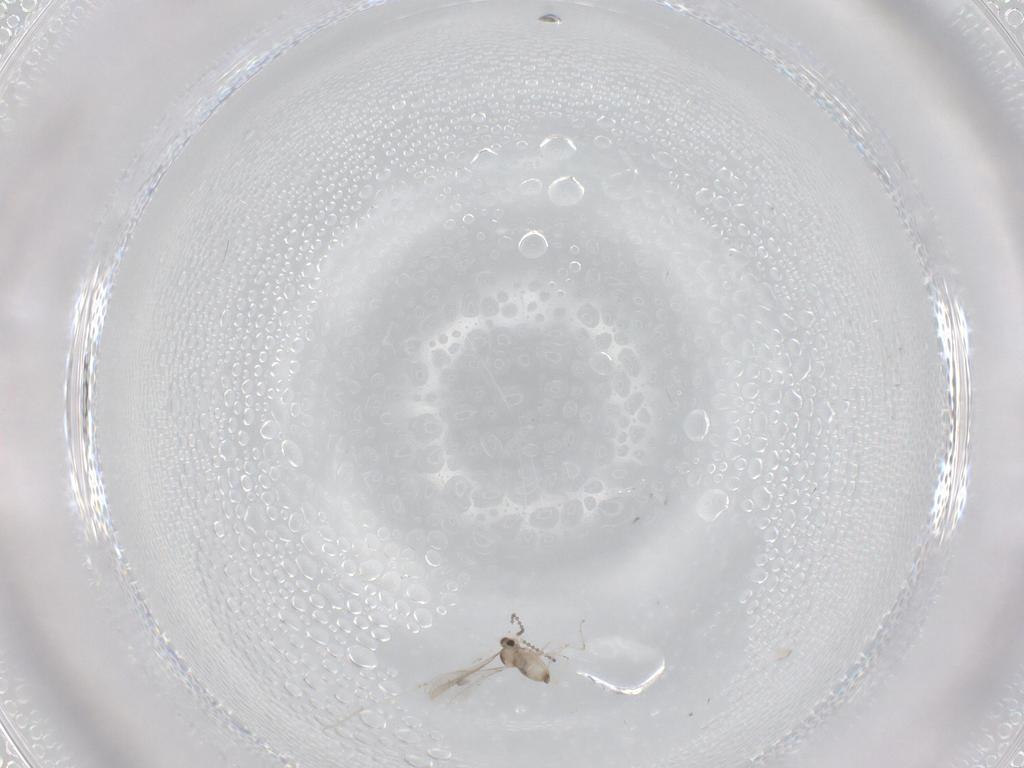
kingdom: Animalia
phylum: Arthropoda
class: Insecta
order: Diptera
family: Cecidomyiidae
